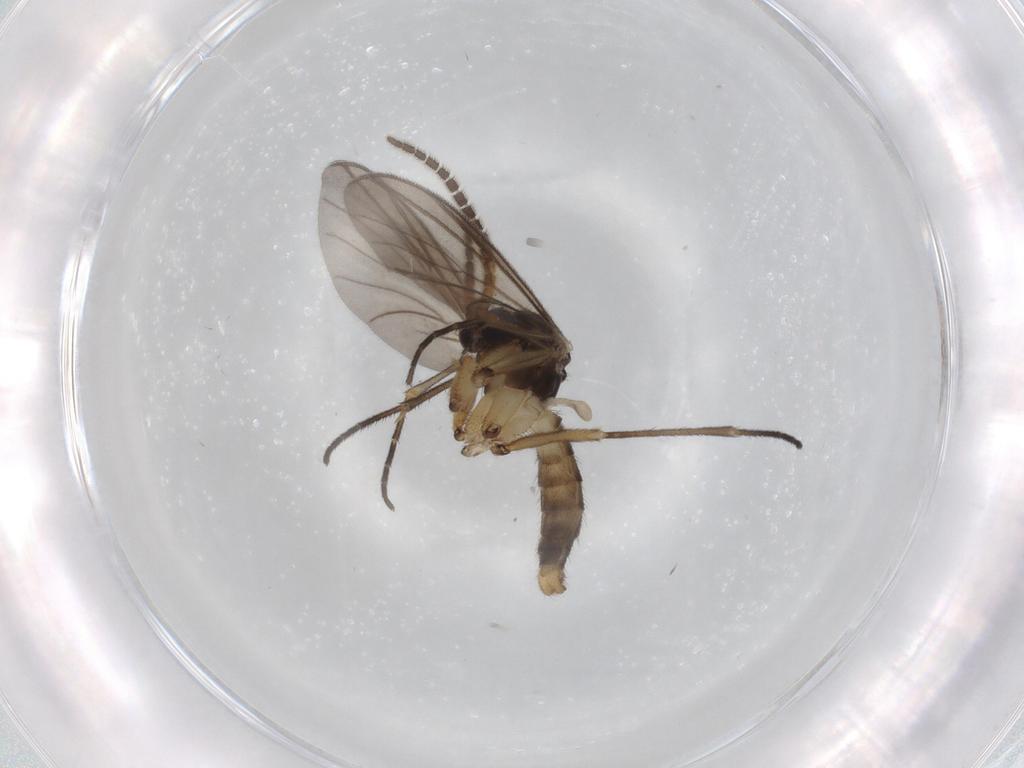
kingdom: Animalia
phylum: Arthropoda
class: Insecta
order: Diptera
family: Mycetophilidae
